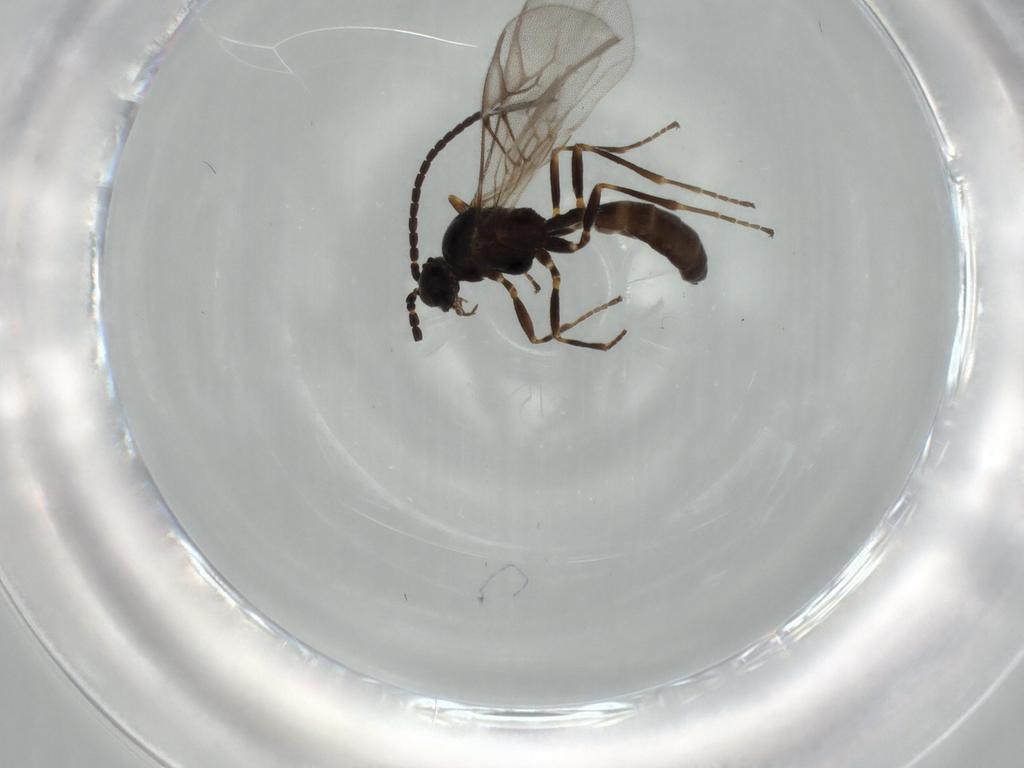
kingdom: Animalia
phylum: Arthropoda
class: Insecta
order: Hymenoptera
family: Braconidae
